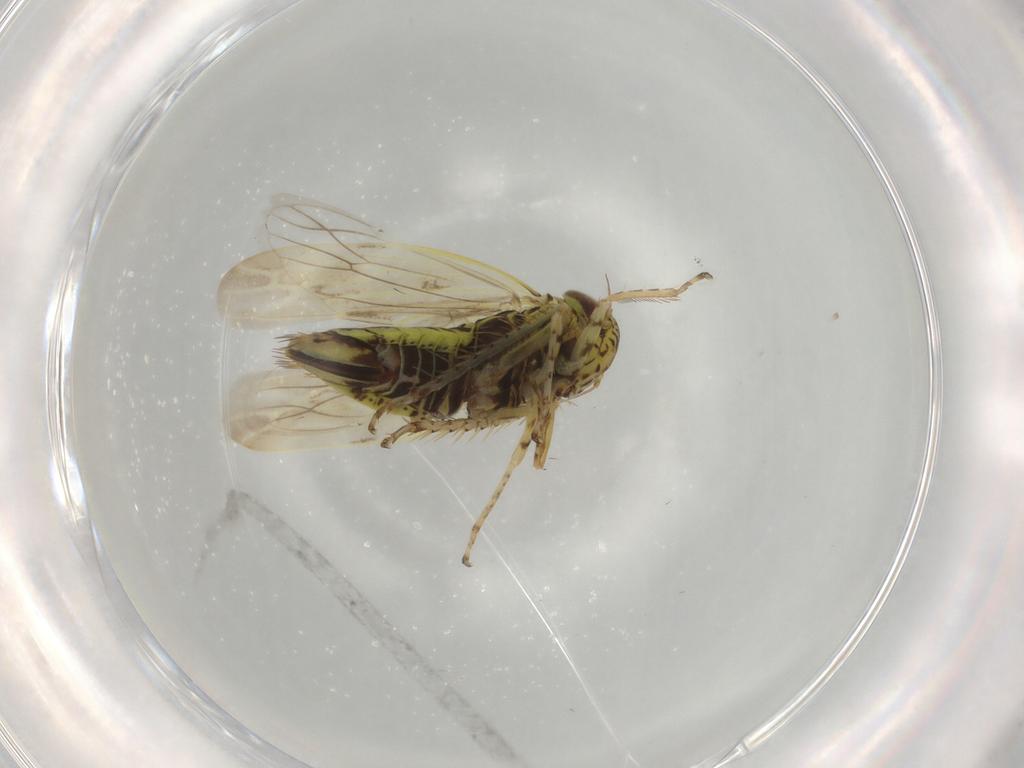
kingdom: Animalia
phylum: Arthropoda
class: Insecta
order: Hemiptera
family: Cicadellidae
